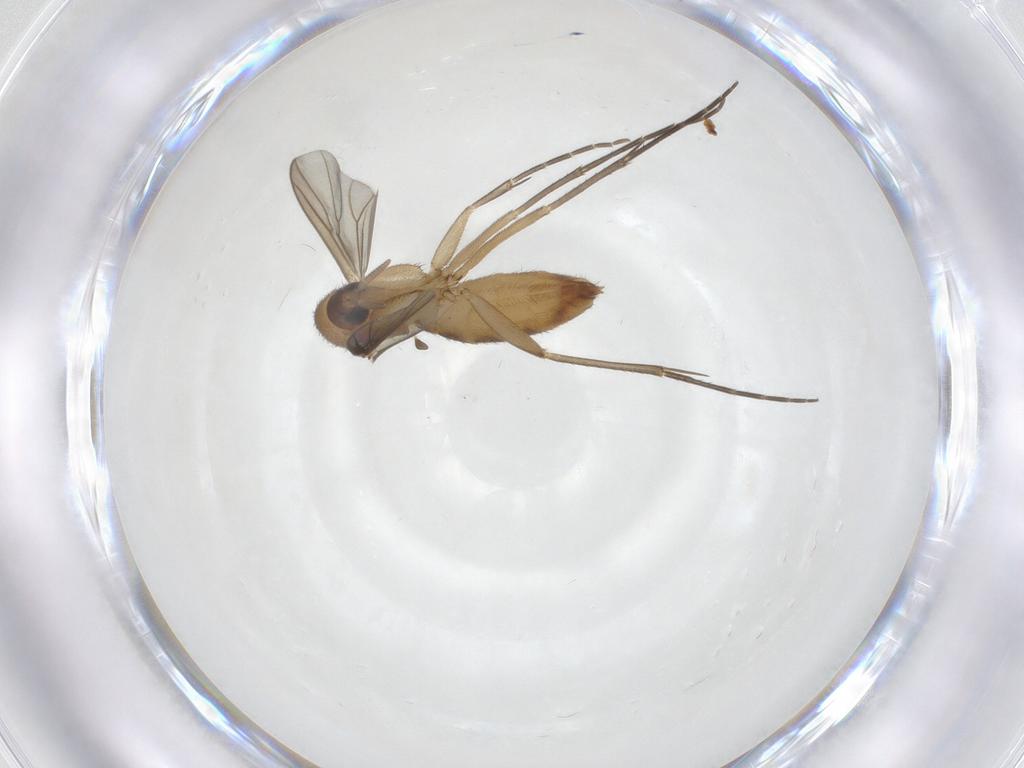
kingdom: Animalia
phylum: Arthropoda
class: Insecta
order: Diptera
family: Mycetophilidae
